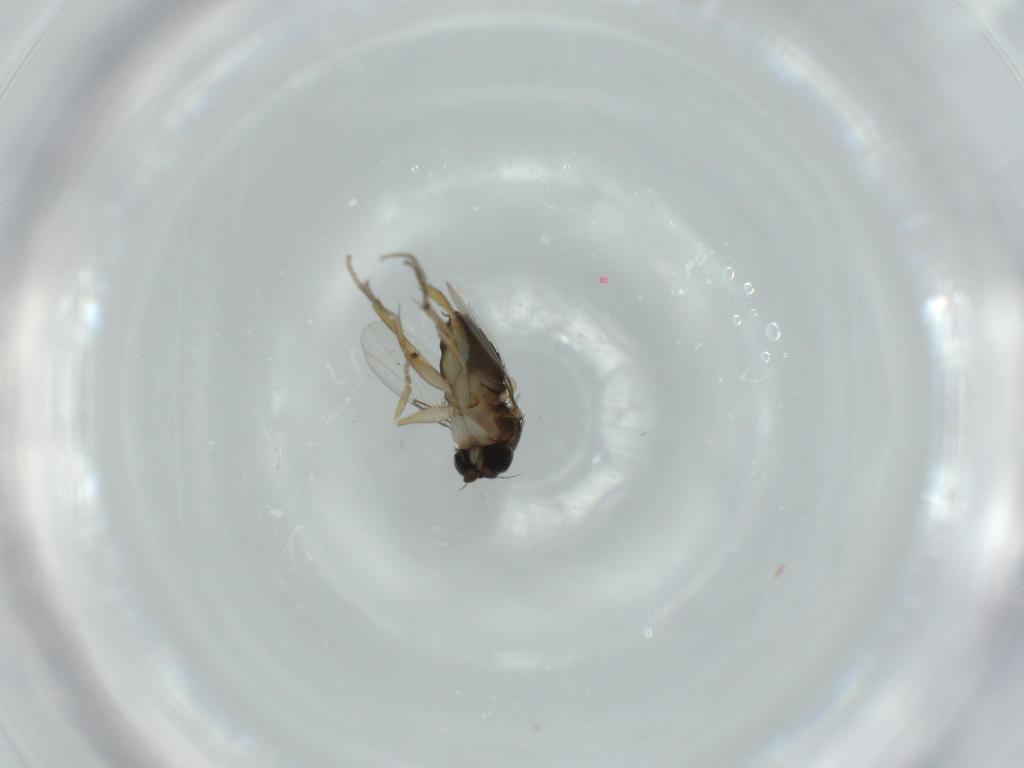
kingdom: Animalia
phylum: Arthropoda
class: Insecta
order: Diptera
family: Phoridae
